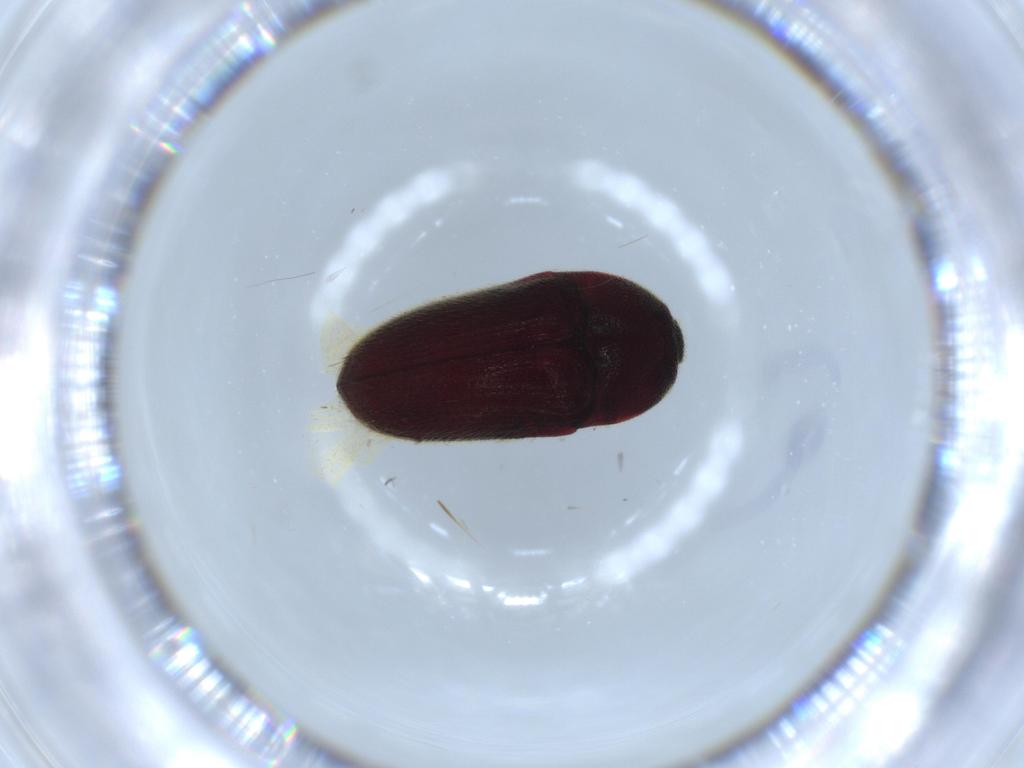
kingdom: Animalia
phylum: Arthropoda
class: Insecta
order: Coleoptera
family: Throscidae
